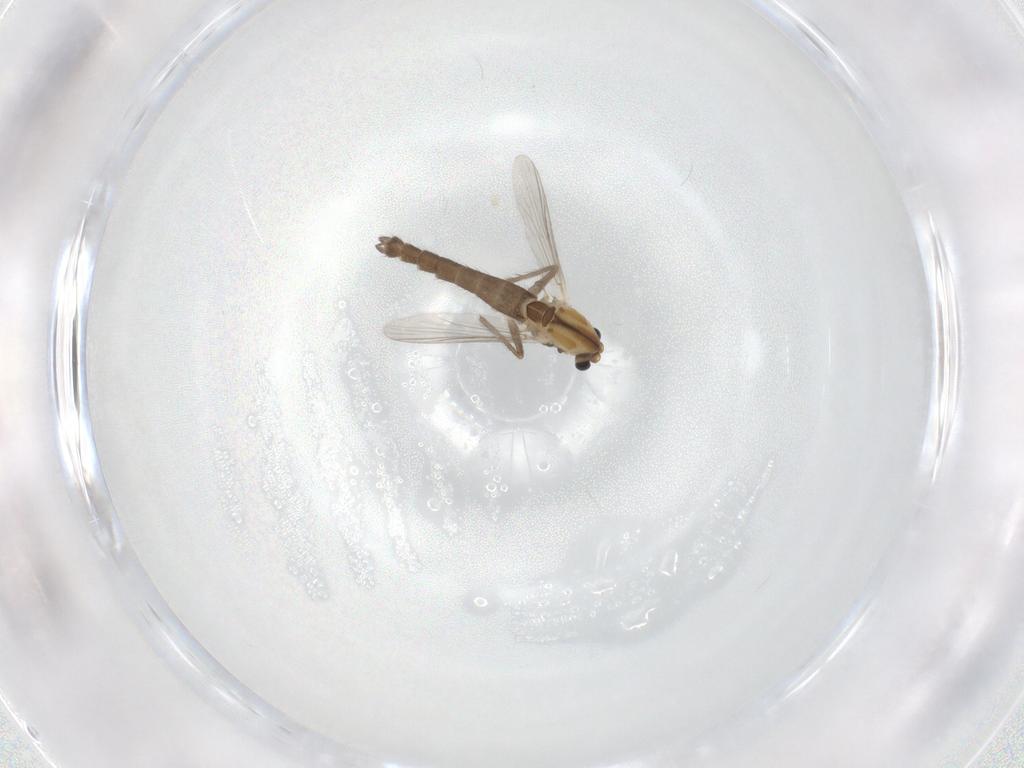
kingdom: Animalia
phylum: Arthropoda
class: Insecta
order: Diptera
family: Chironomidae
